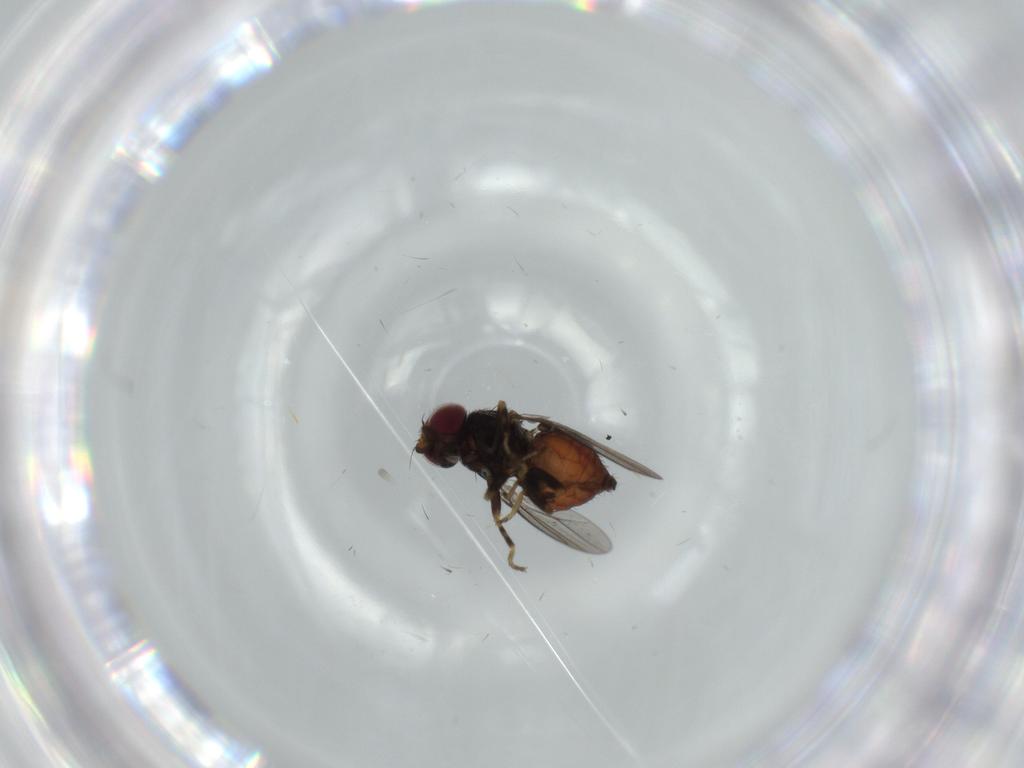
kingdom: Animalia
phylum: Arthropoda
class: Insecta
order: Diptera
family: Chloropidae
